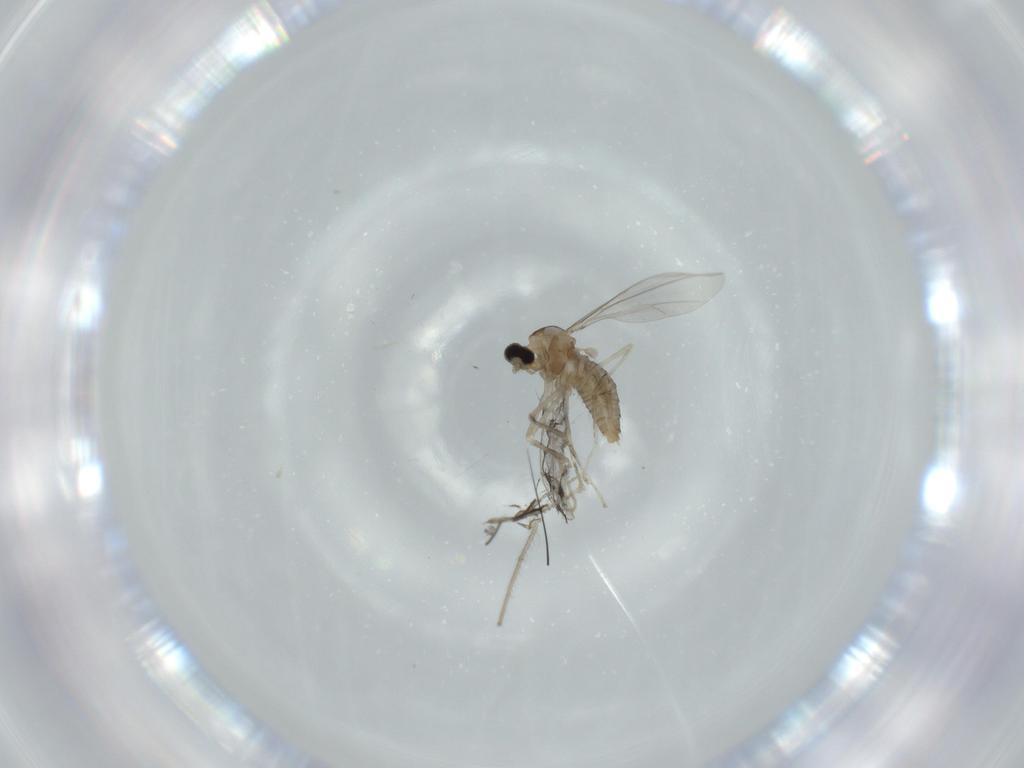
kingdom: Animalia
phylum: Arthropoda
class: Insecta
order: Diptera
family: Cecidomyiidae
